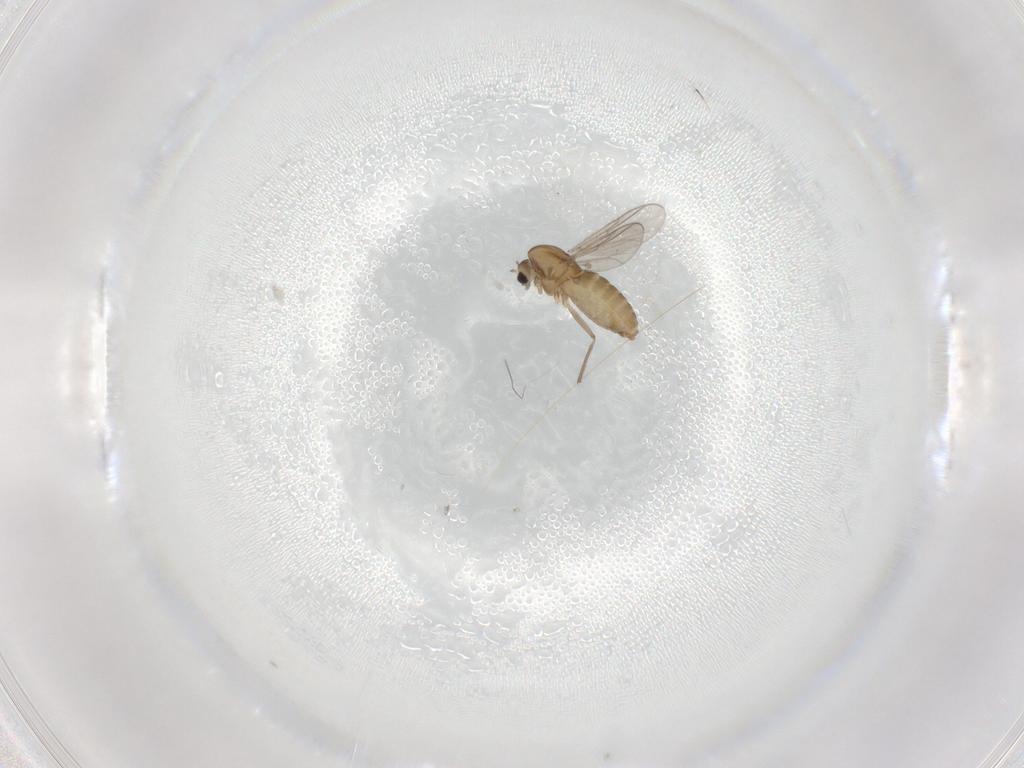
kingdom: Animalia
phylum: Arthropoda
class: Insecta
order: Diptera
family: Chironomidae
